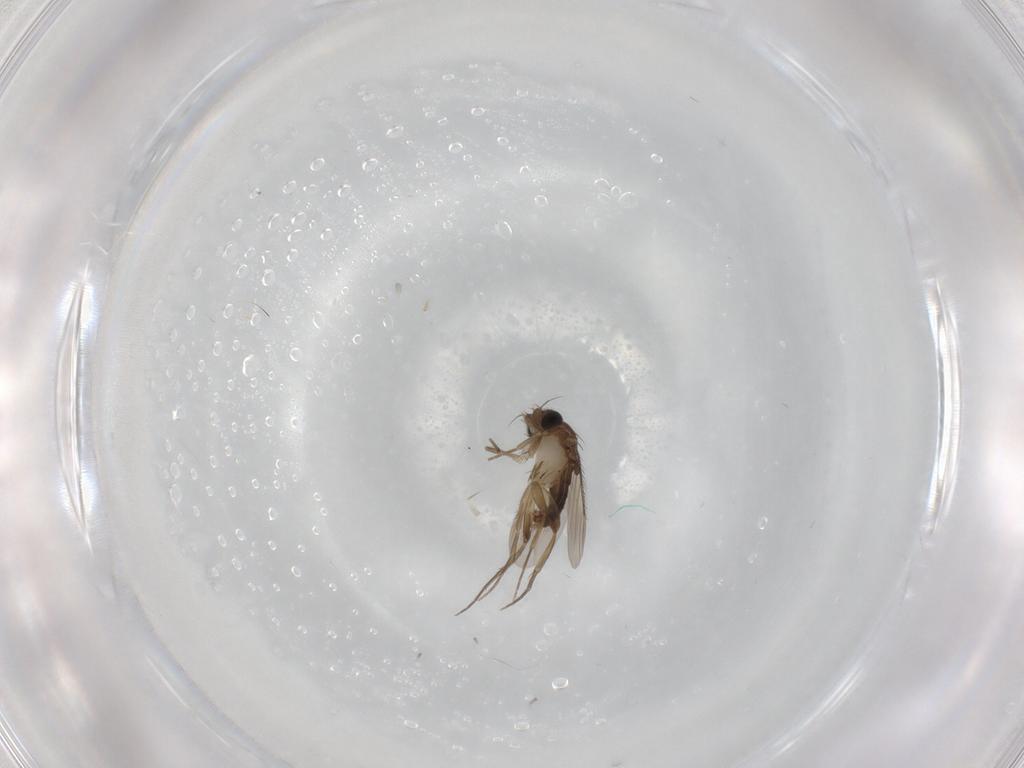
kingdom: Animalia
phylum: Arthropoda
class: Insecta
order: Diptera
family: Phoridae
